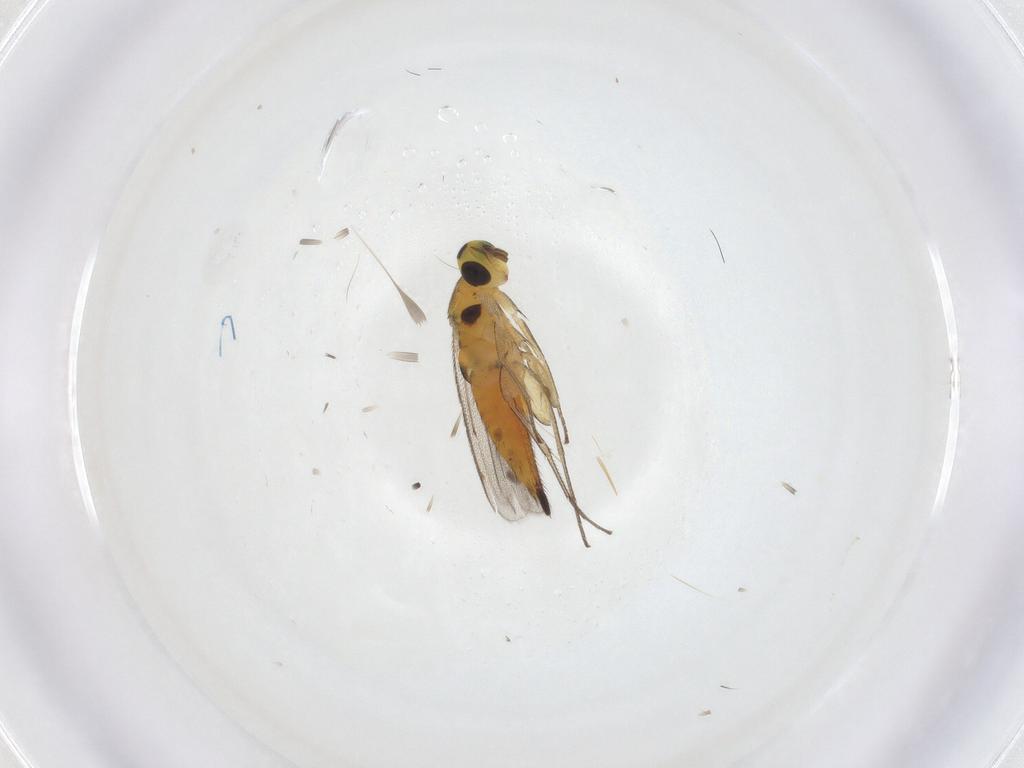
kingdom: Animalia
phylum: Arthropoda
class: Insecta
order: Hymenoptera
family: Eulophidae
